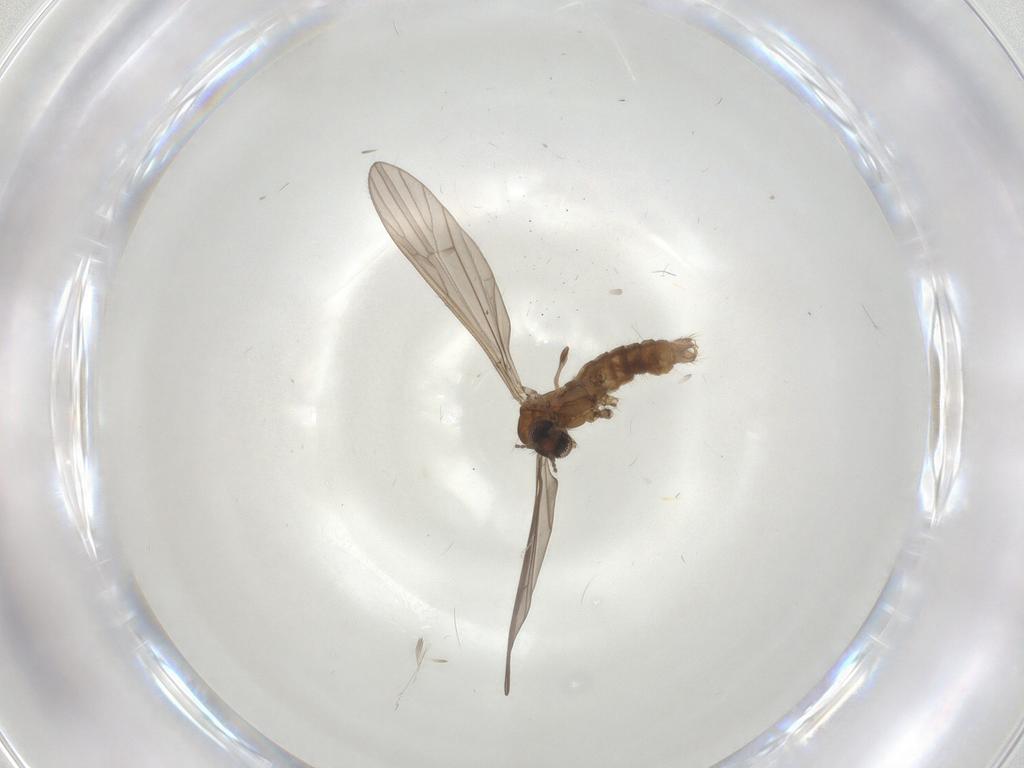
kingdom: Animalia
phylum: Arthropoda
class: Insecta
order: Diptera
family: Limoniidae
